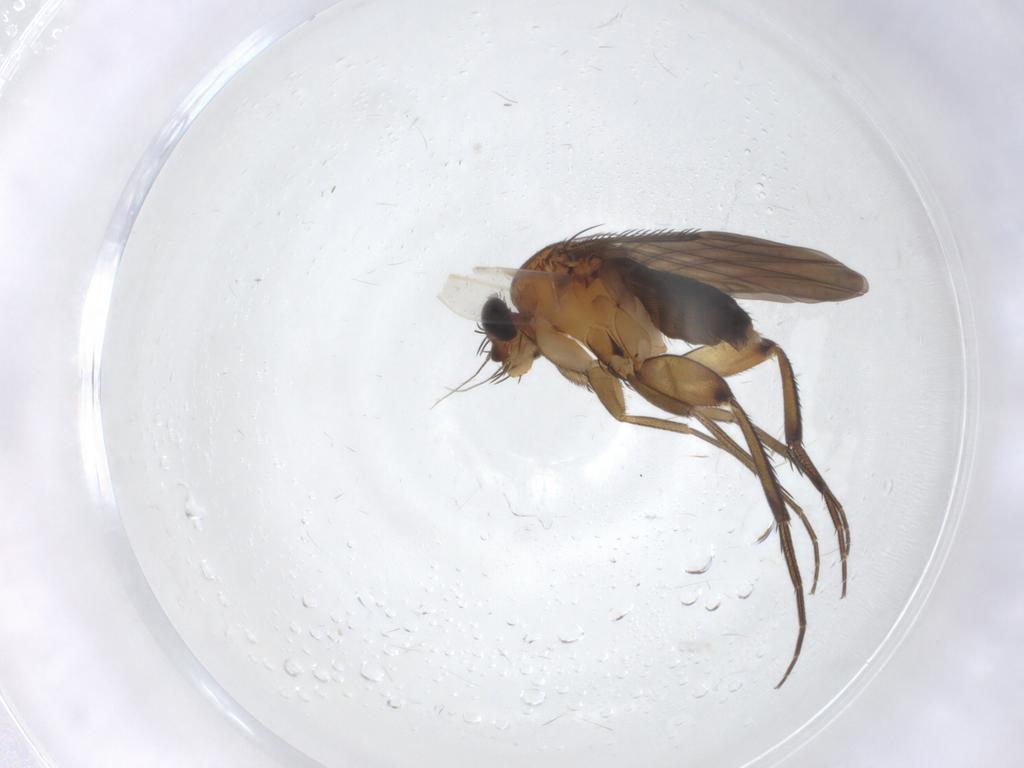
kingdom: Animalia
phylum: Arthropoda
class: Insecta
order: Diptera
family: Phoridae
